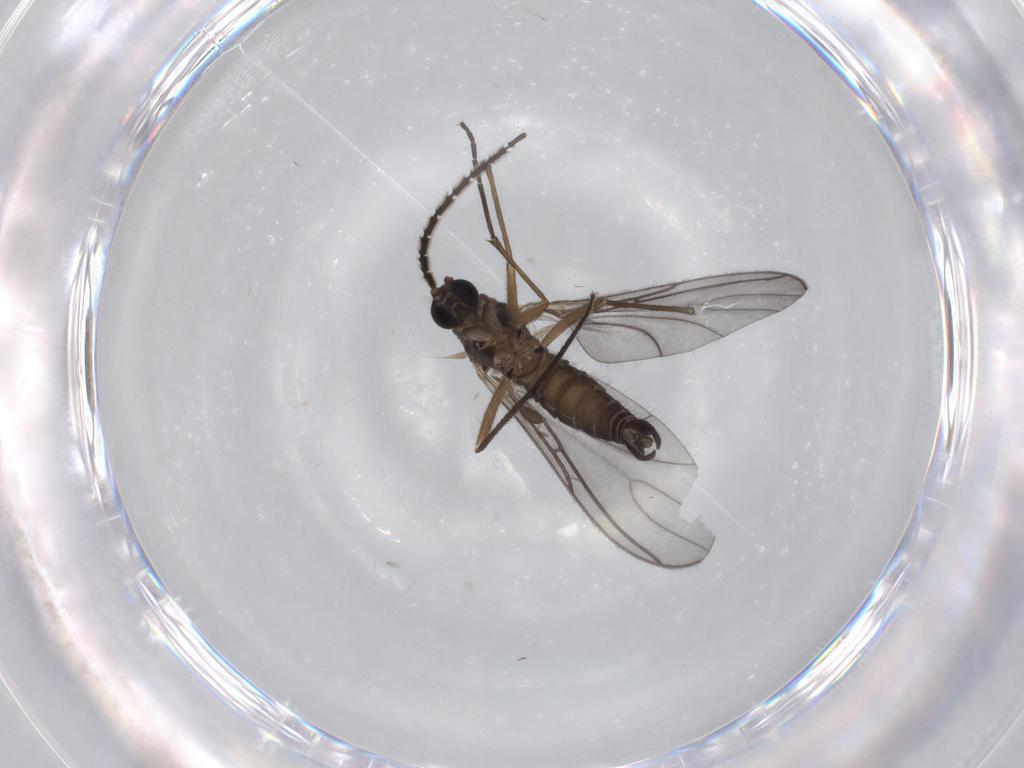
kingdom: Animalia
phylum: Arthropoda
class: Insecta
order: Diptera
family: Sciaridae
